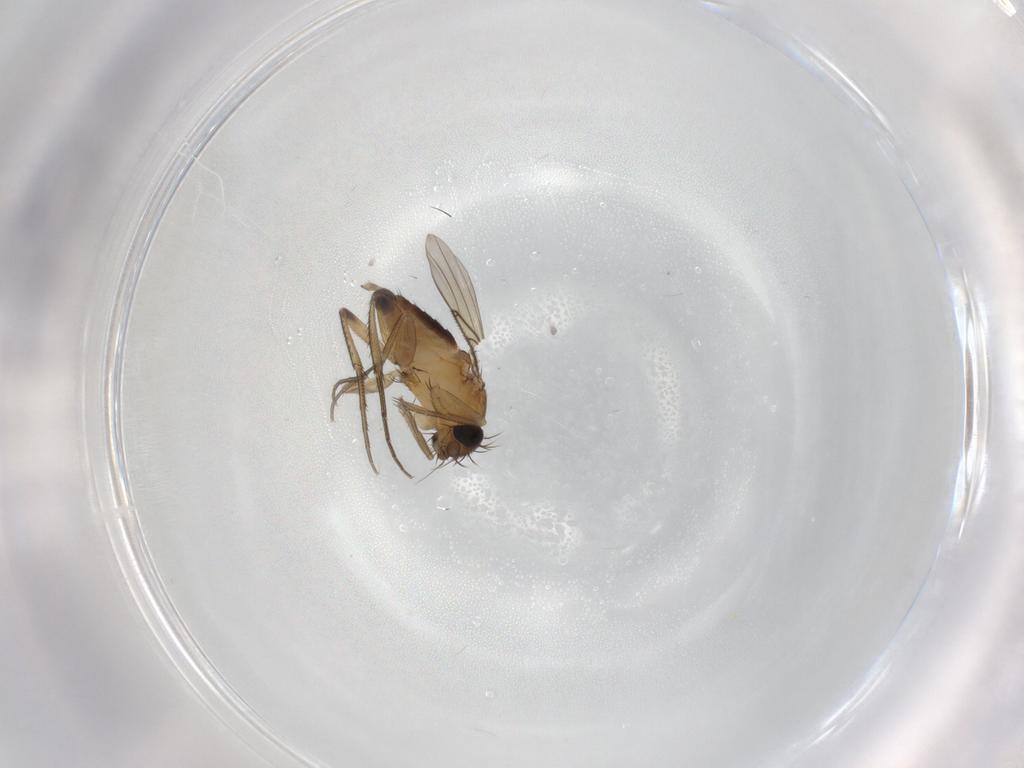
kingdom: Animalia
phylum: Arthropoda
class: Insecta
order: Diptera
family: Phoridae
